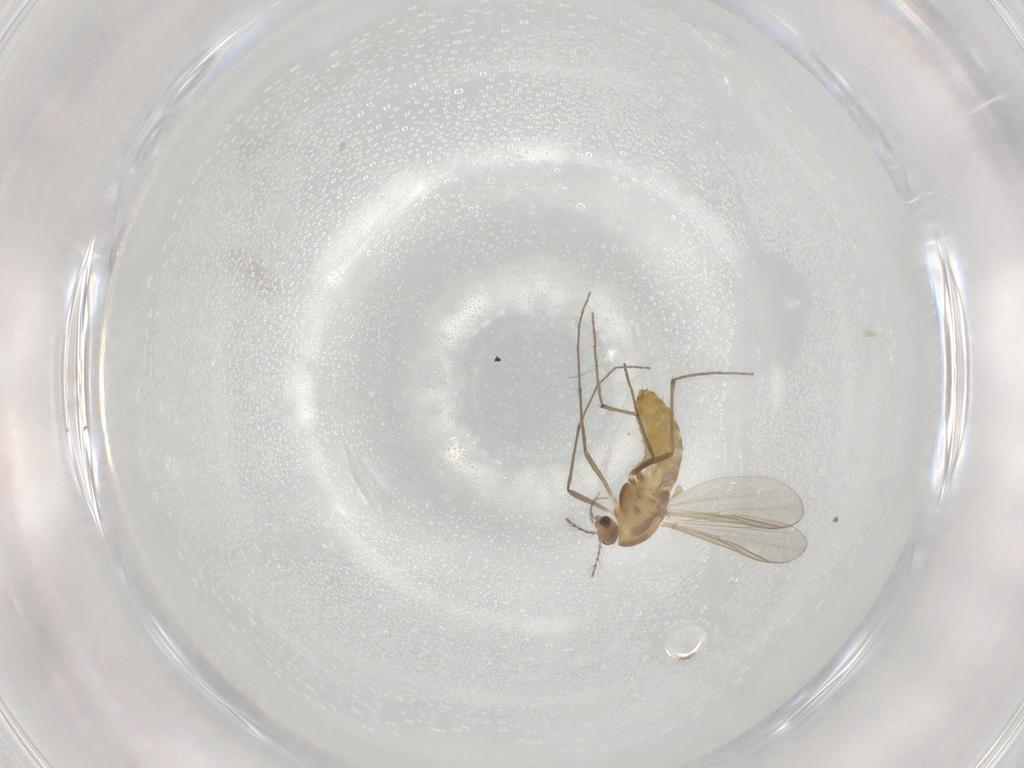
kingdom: Animalia
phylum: Arthropoda
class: Insecta
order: Diptera
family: Chironomidae
